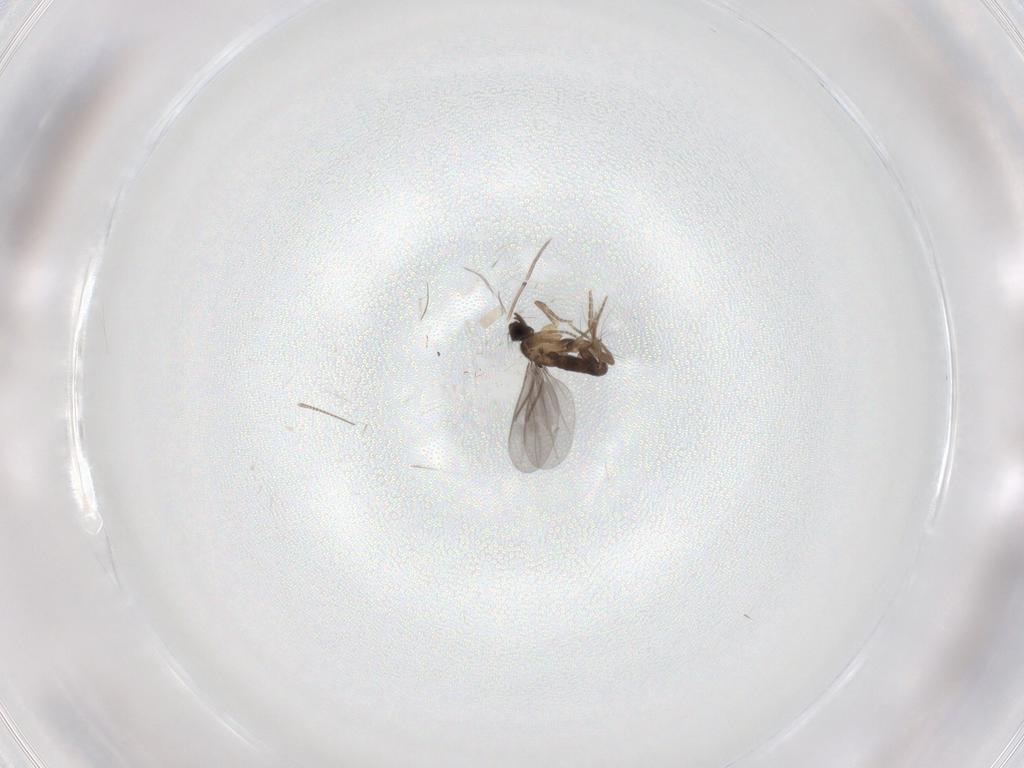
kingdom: Animalia
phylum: Arthropoda
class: Insecta
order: Diptera
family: Chironomidae
